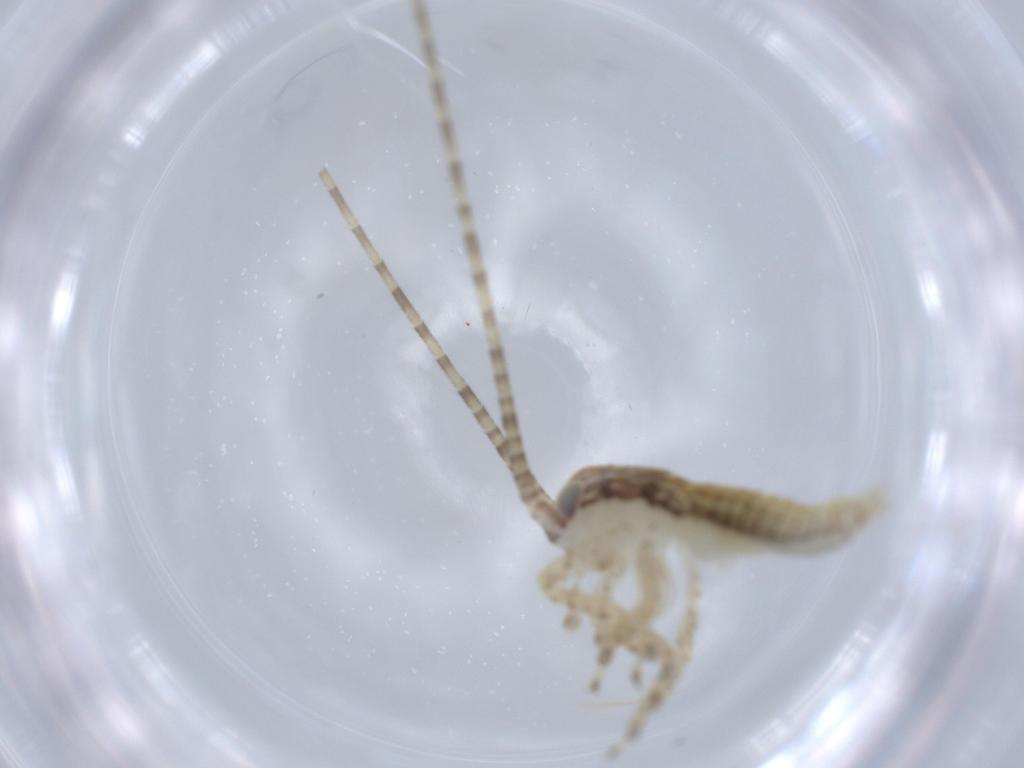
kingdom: Animalia
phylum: Arthropoda
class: Insecta
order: Orthoptera
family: Gryllidae
